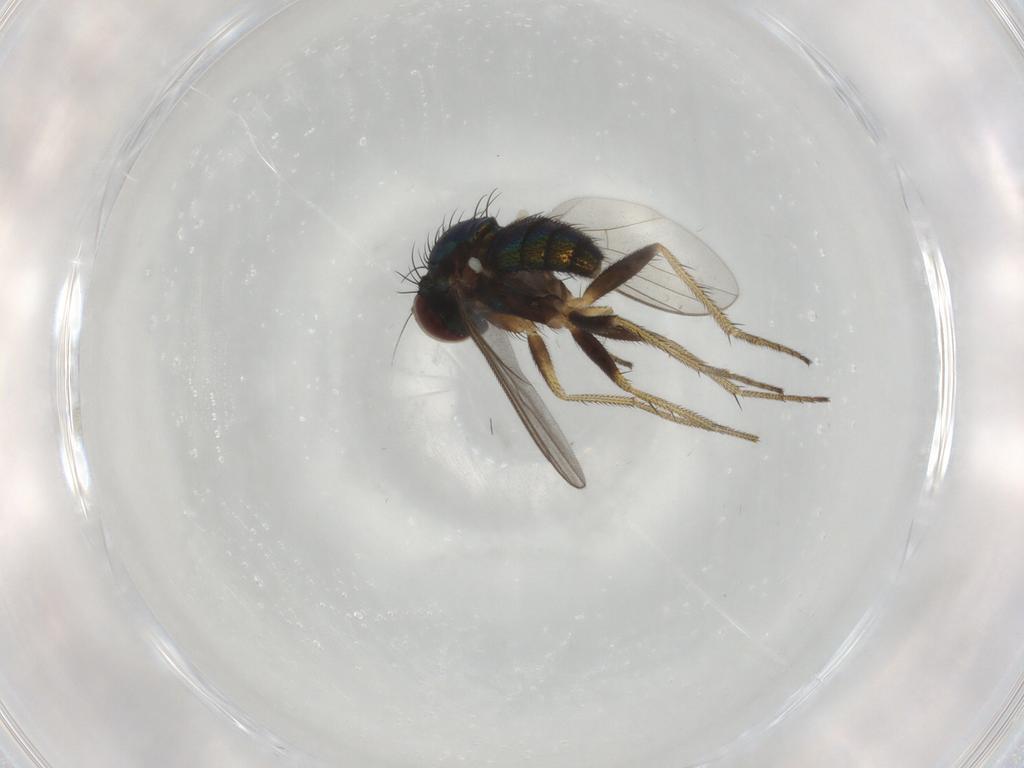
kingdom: Animalia
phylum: Arthropoda
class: Insecta
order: Diptera
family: Dolichopodidae
